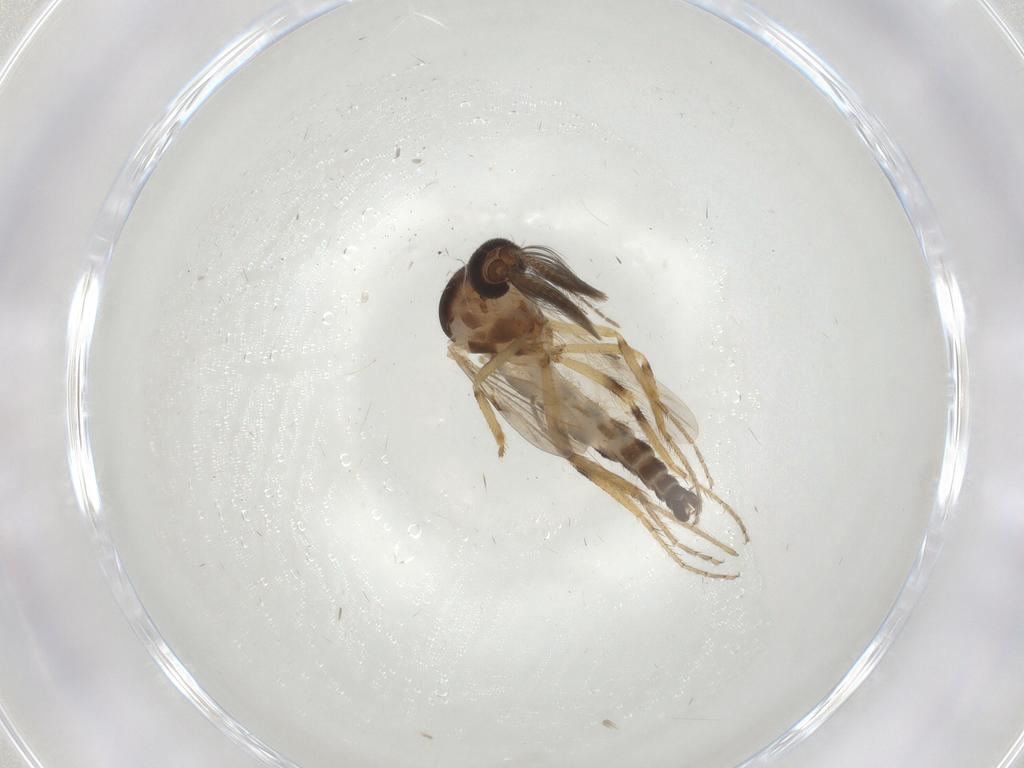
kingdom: Animalia
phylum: Arthropoda
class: Insecta
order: Diptera
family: Ceratopogonidae
